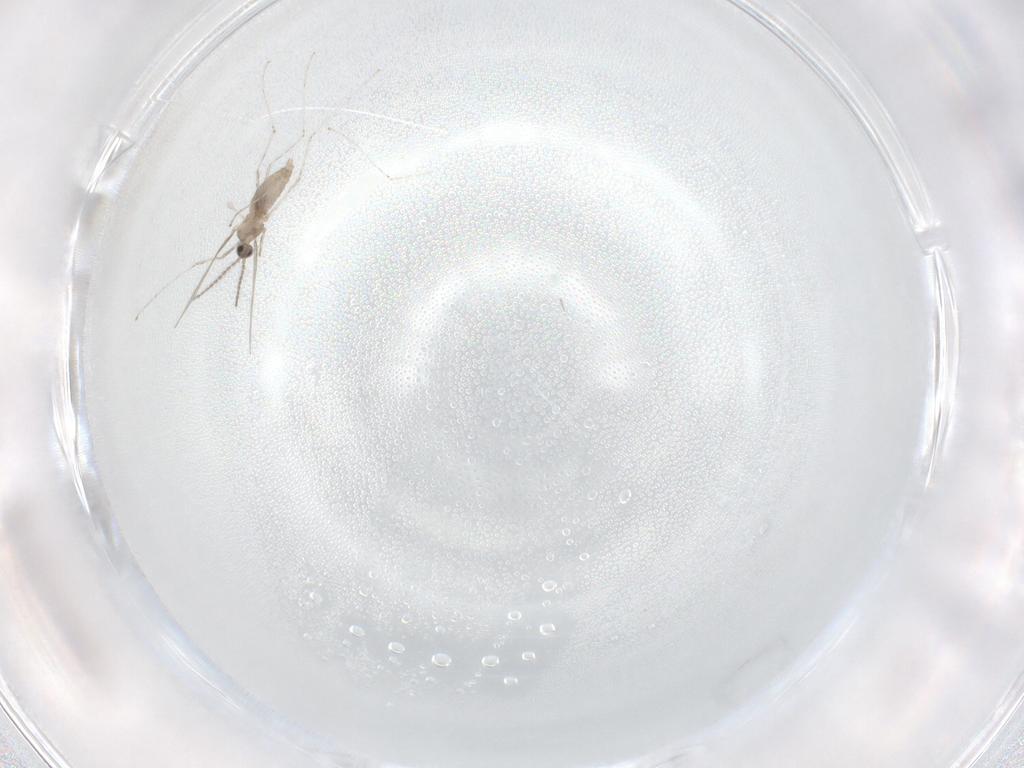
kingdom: Animalia
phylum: Arthropoda
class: Insecta
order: Diptera
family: Cecidomyiidae
